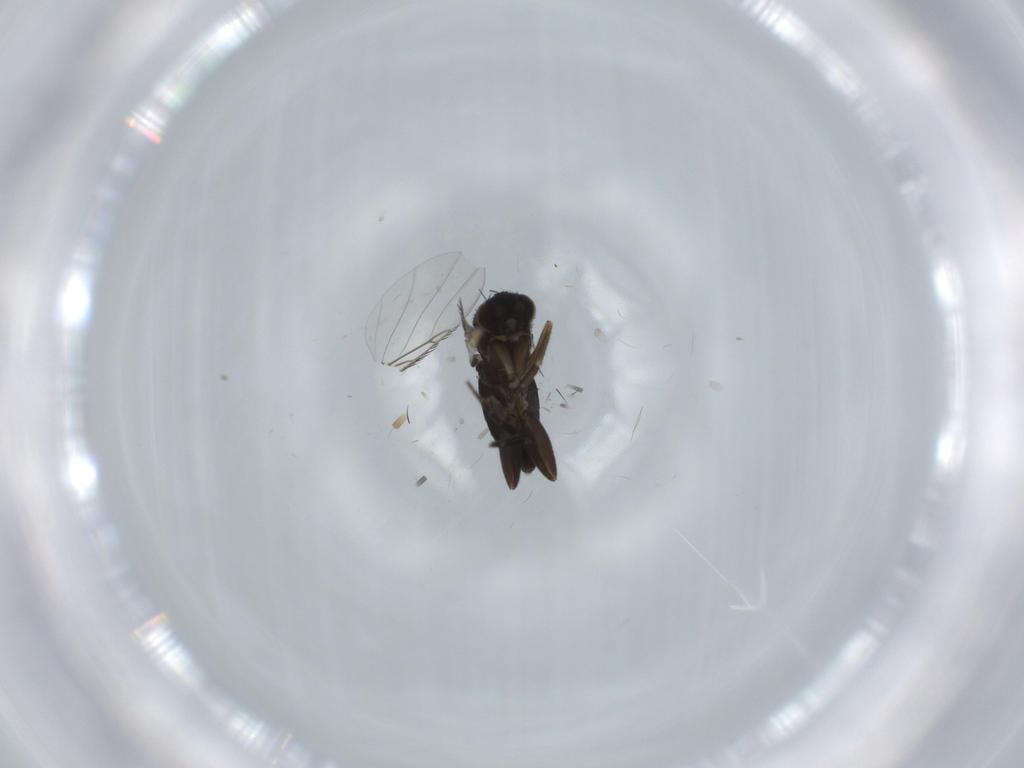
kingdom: Animalia
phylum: Arthropoda
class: Insecta
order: Diptera
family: Phoridae
